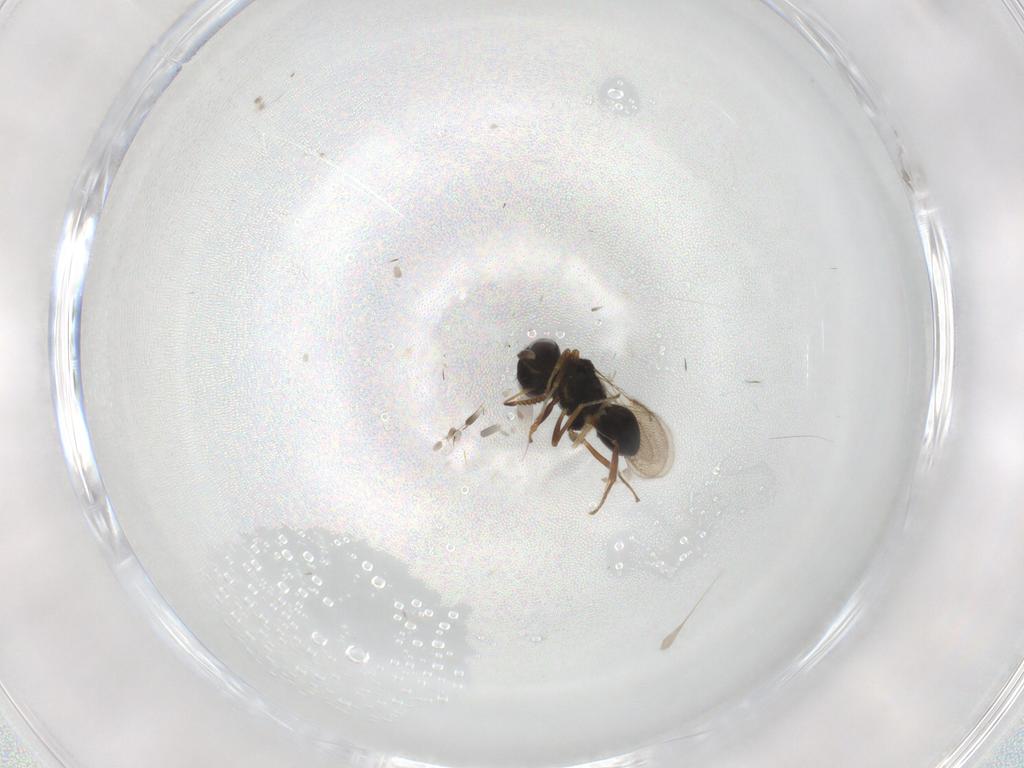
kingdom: Animalia
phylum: Arthropoda
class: Insecta
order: Hymenoptera
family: Pteromalidae
